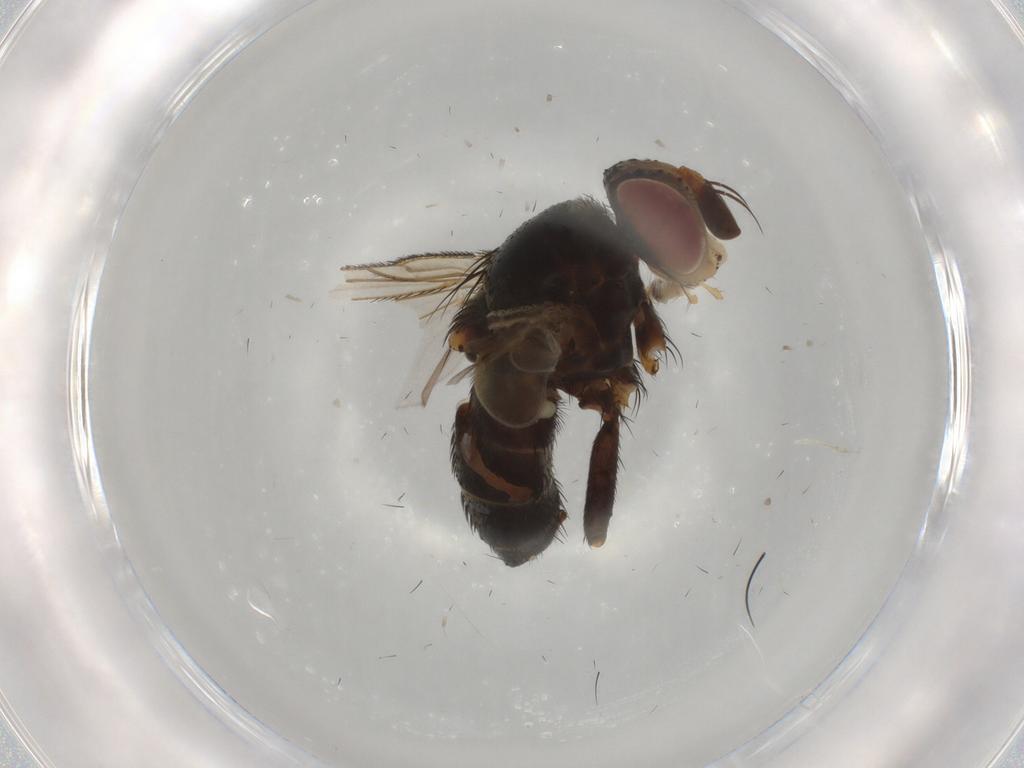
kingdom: Animalia
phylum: Arthropoda
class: Insecta
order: Diptera
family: Tachinidae
